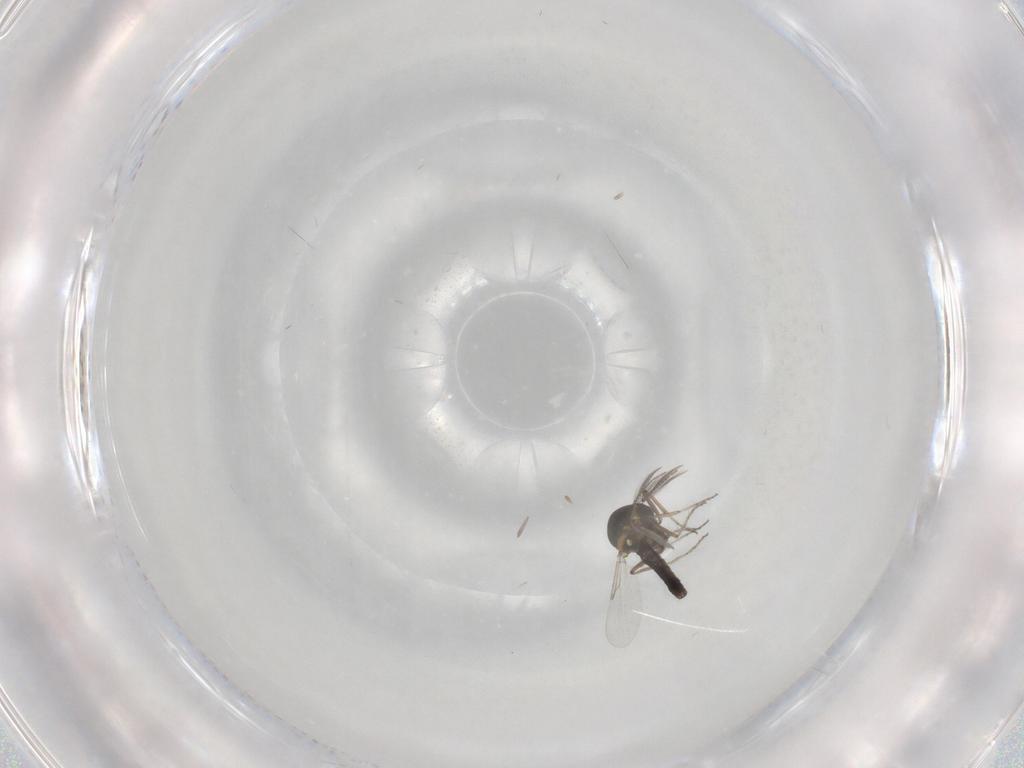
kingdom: Animalia
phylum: Arthropoda
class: Insecta
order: Diptera
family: Ceratopogonidae
